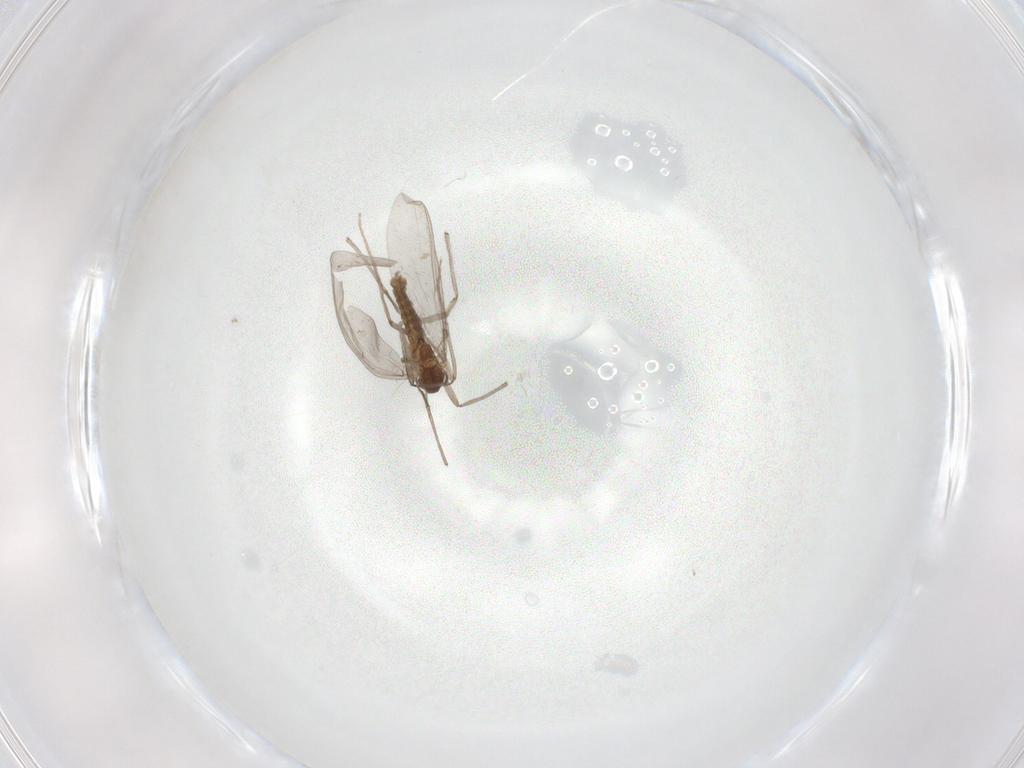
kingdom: Animalia
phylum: Arthropoda
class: Insecta
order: Diptera
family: Chironomidae
